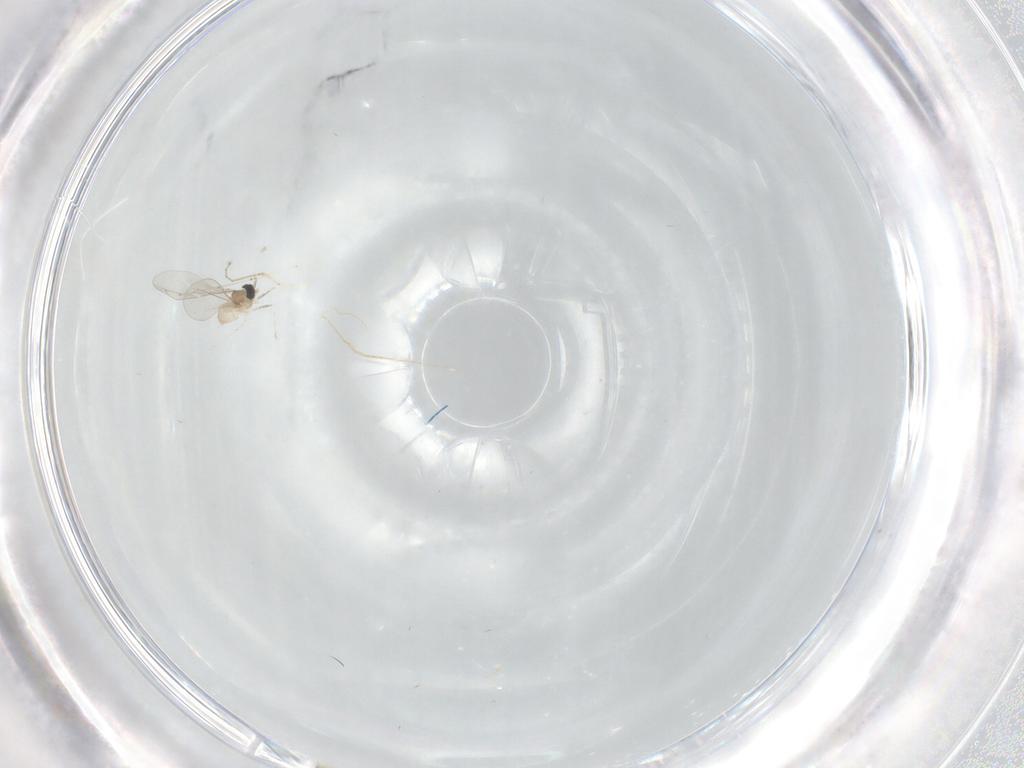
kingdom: Animalia
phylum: Arthropoda
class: Insecta
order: Diptera
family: Cecidomyiidae
